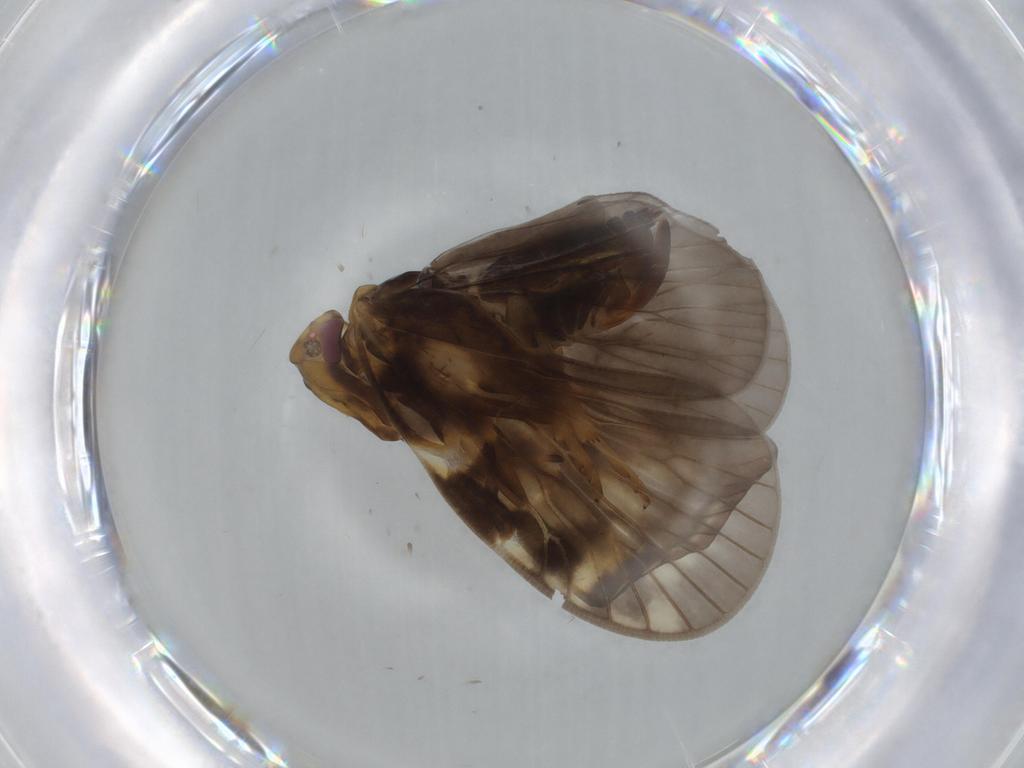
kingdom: Animalia
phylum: Arthropoda
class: Insecta
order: Hemiptera
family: Cixiidae
